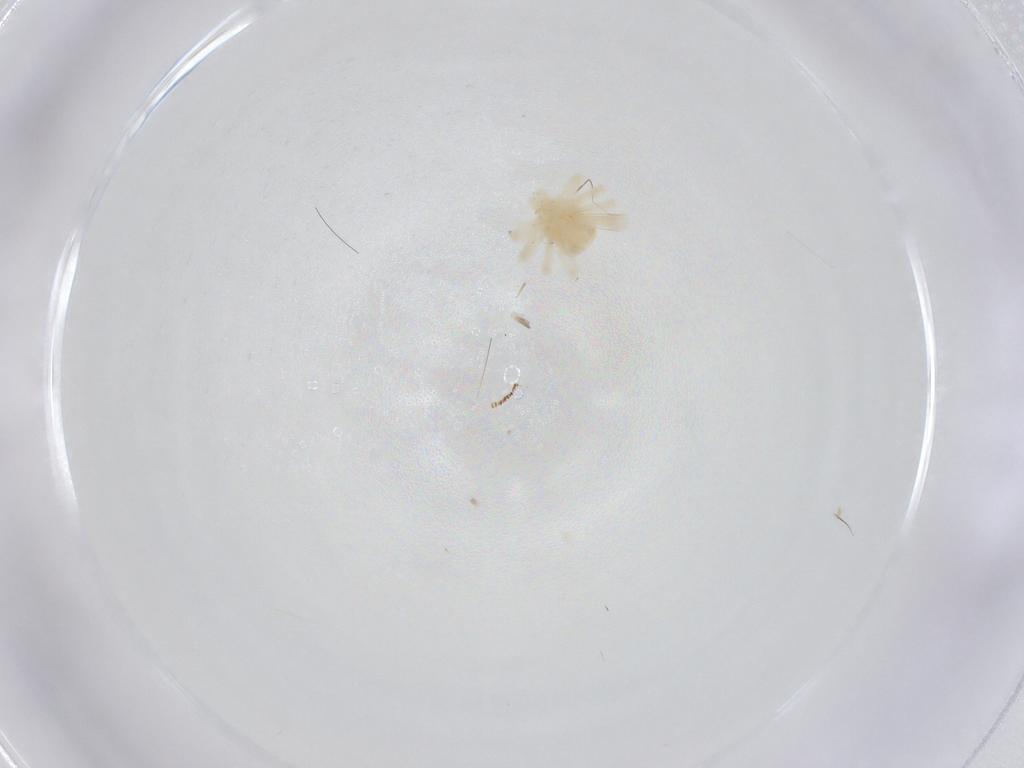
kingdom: Animalia
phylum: Arthropoda
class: Arachnida
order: Trombidiformes
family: Anystidae
